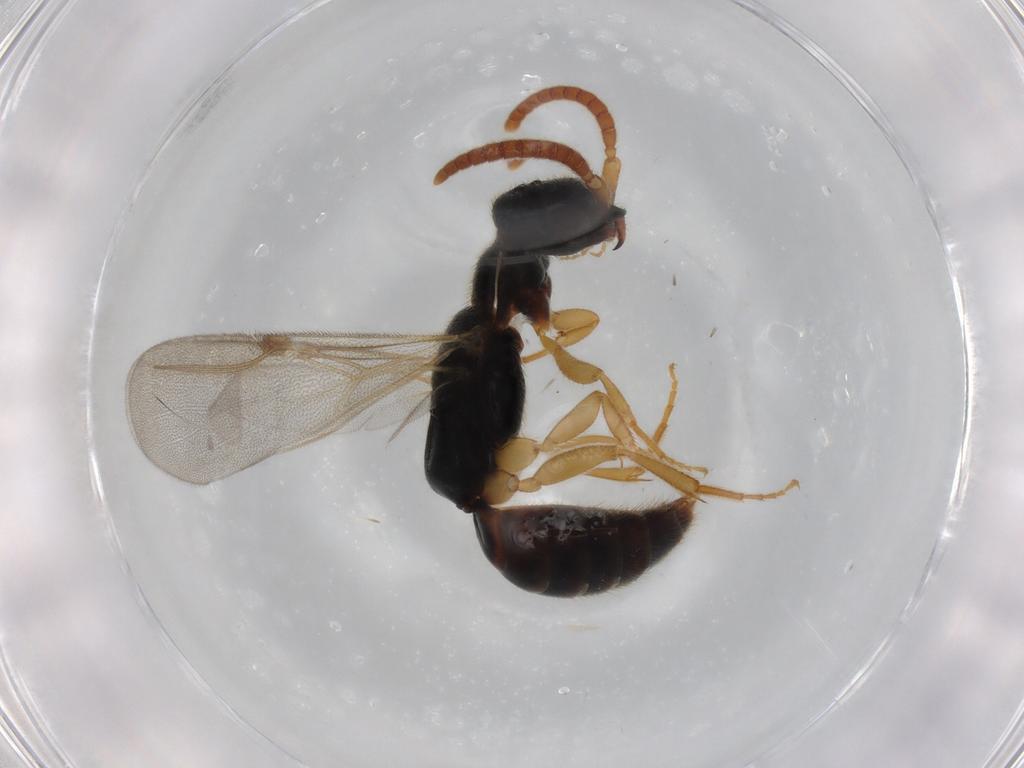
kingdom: Animalia
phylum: Arthropoda
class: Insecta
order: Hymenoptera
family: Bethylidae
